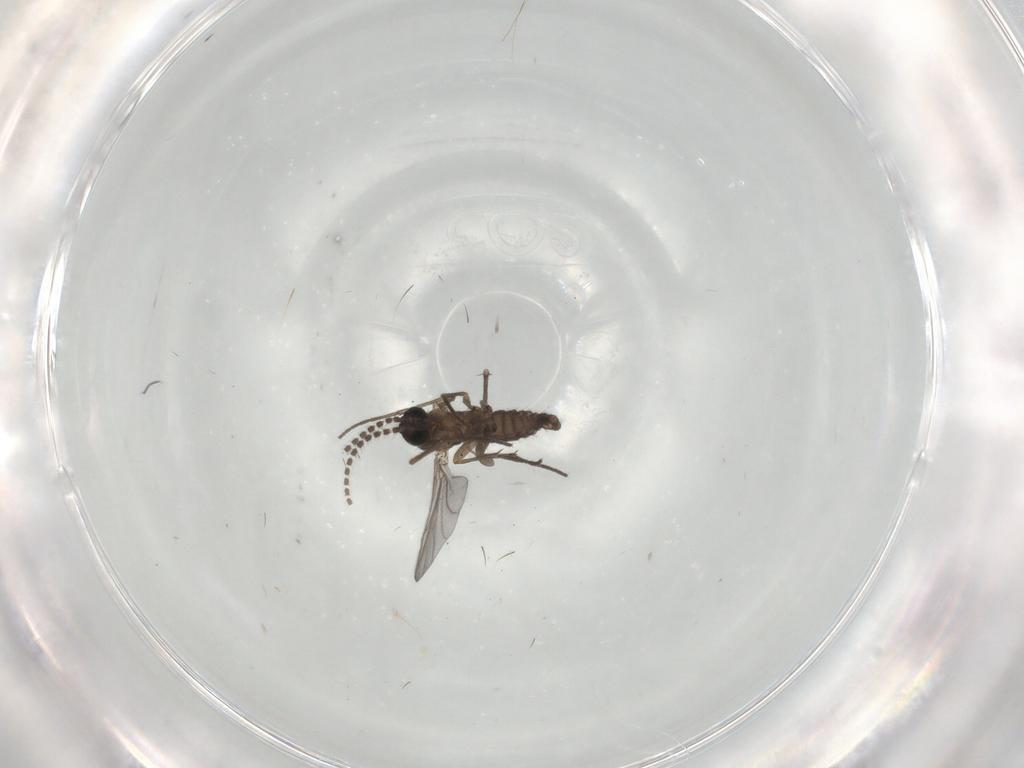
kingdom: Animalia
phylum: Arthropoda
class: Insecta
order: Diptera
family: Sciaridae
